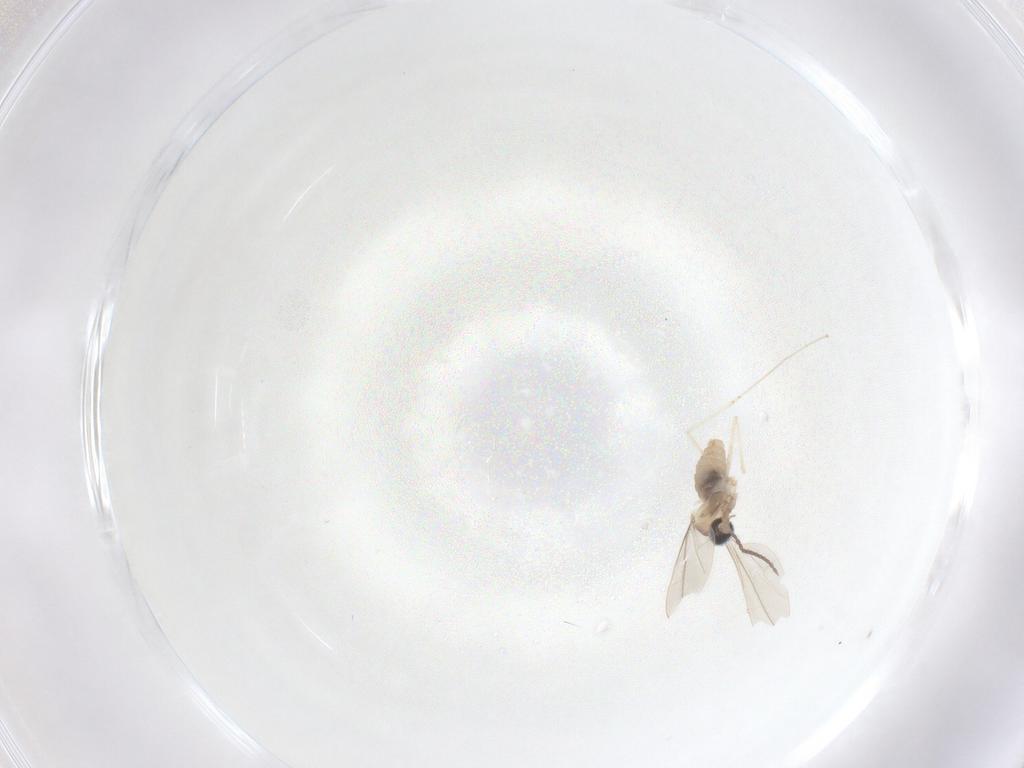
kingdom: Animalia
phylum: Arthropoda
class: Insecta
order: Diptera
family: Cecidomyiidae
